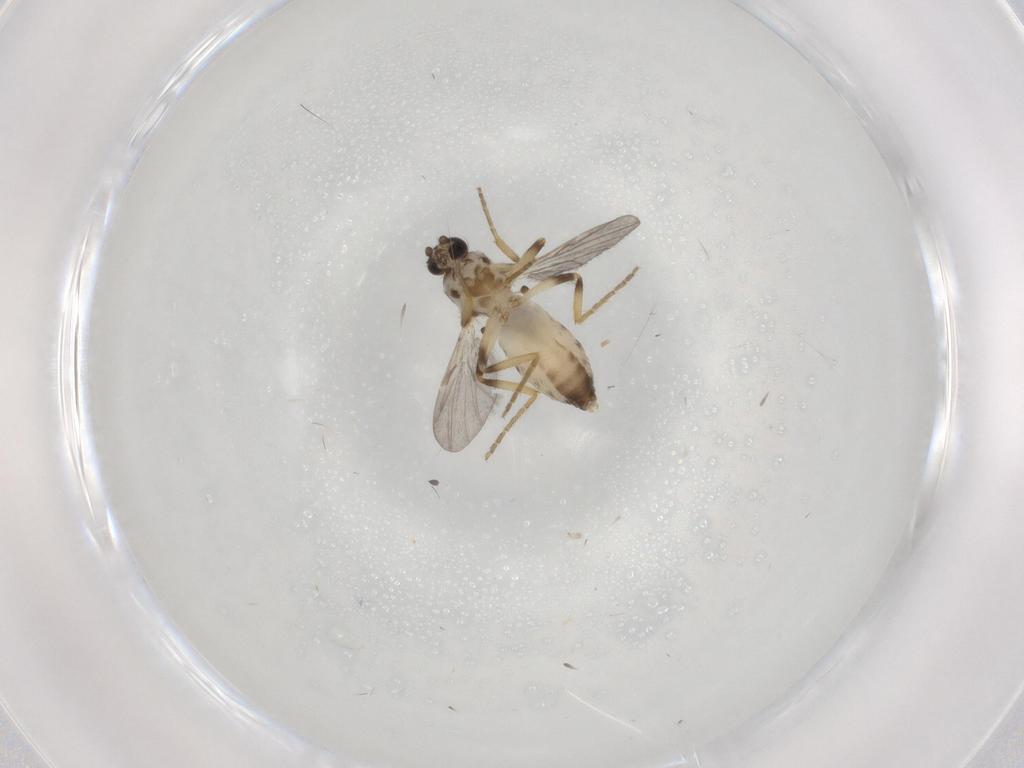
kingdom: Animalia
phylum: Arthropoda
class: Insecta
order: Diptera
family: Ceratopogonidae
